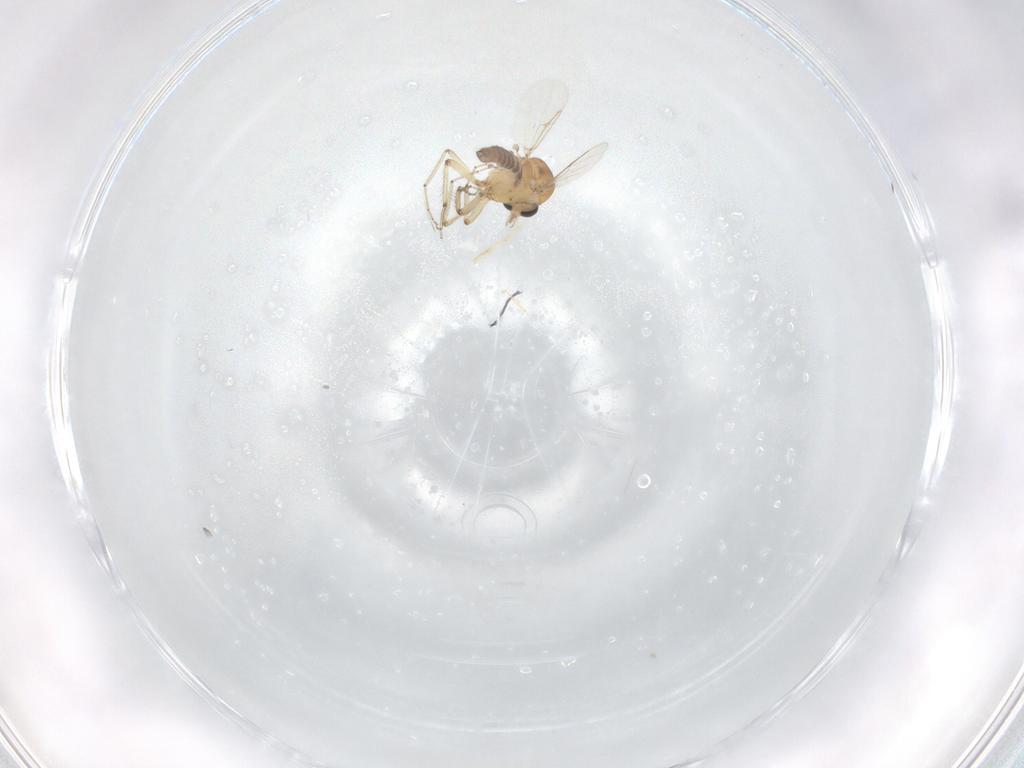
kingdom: Animalia
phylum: Arthropoda
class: Insecta
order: Diptera
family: Ceratopogonidae
